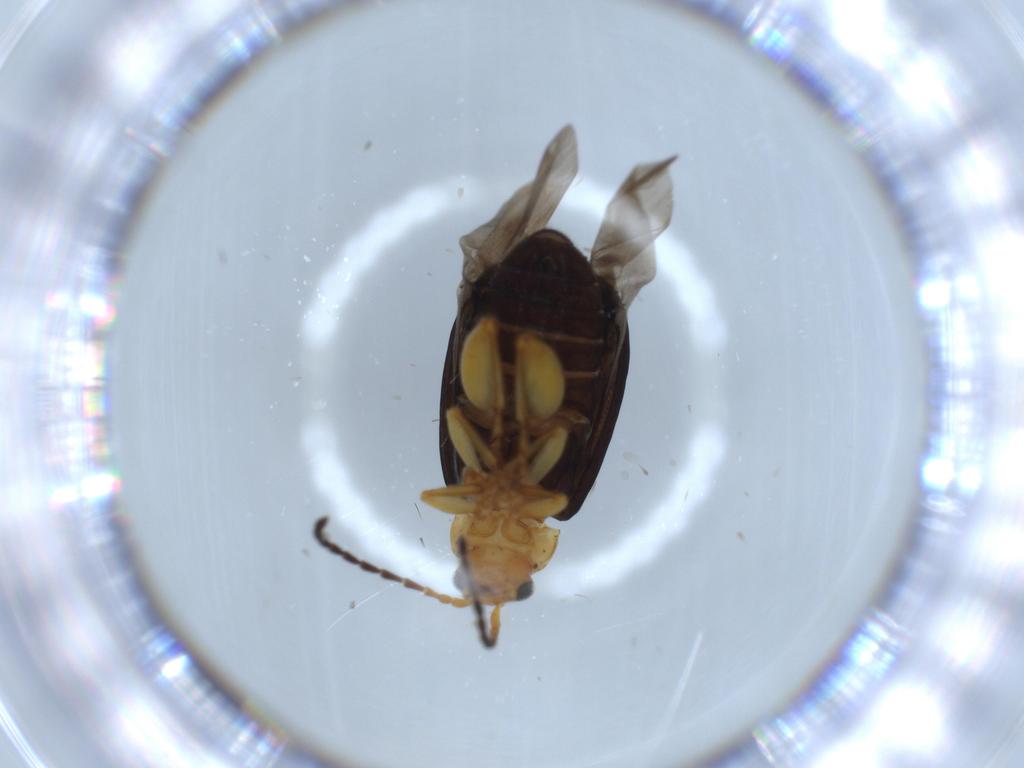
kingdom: Animalia
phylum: Arthropoda
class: Insecta
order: Coleoptera
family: Chrysomelidae
